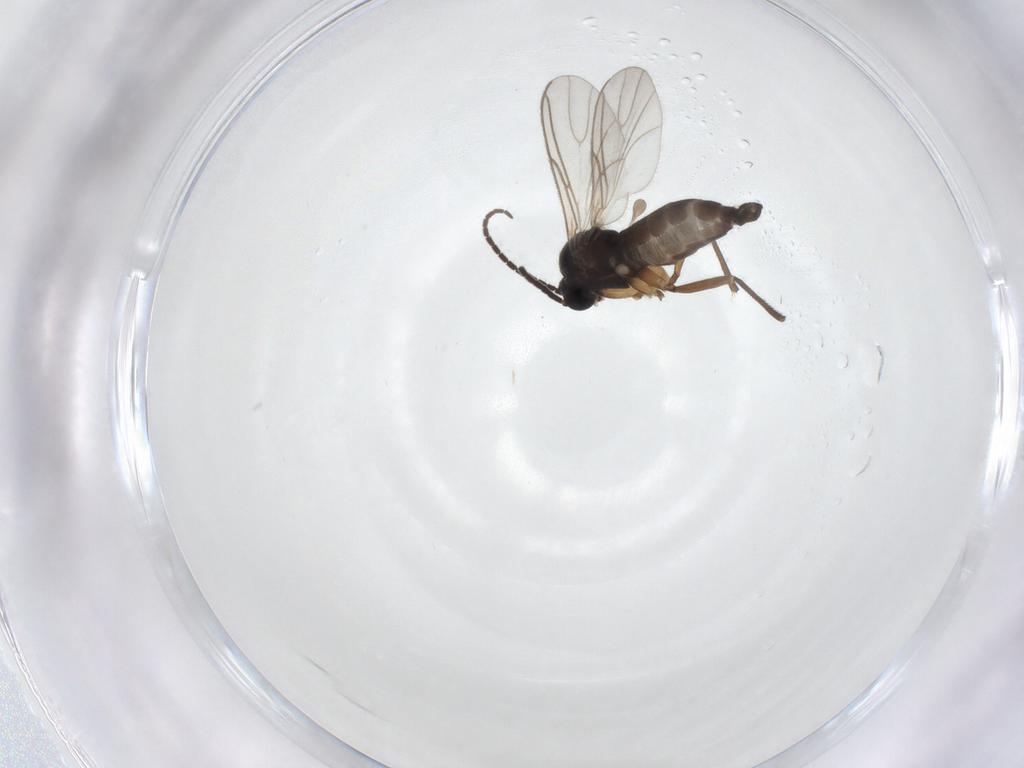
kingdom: Animalia
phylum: Arthropoda
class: Insecta
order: Diptera
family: Sciaridae
